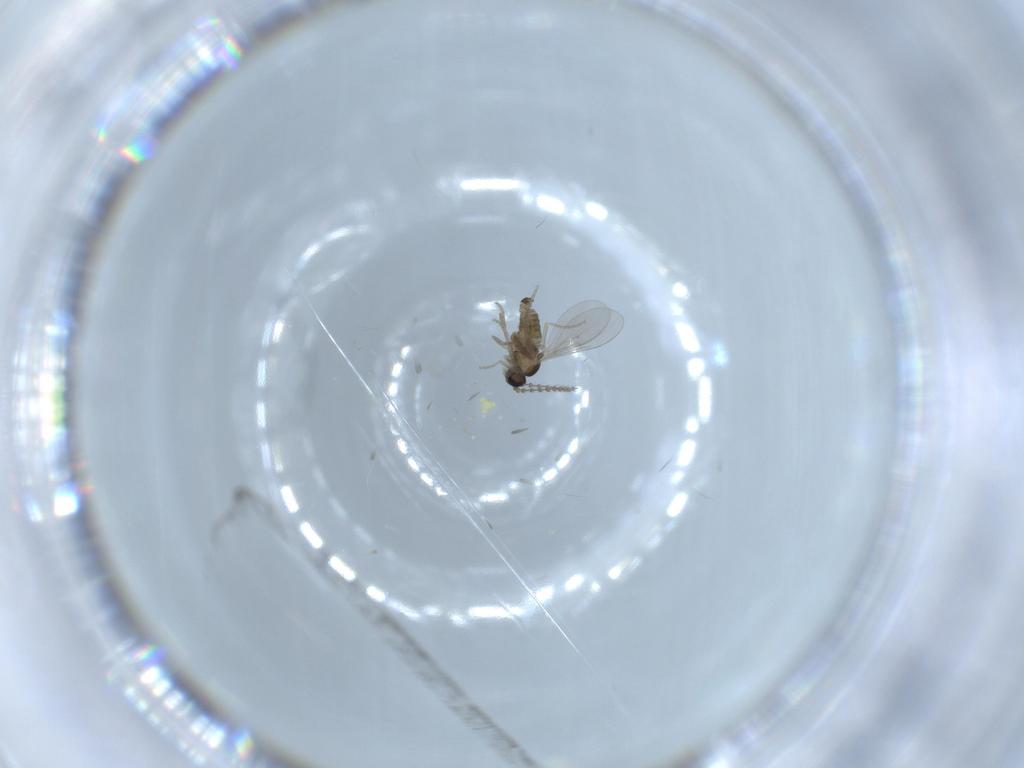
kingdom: Animalia
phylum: Arthropoda
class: Insecta
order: Diptera
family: Cecidomyiidae
